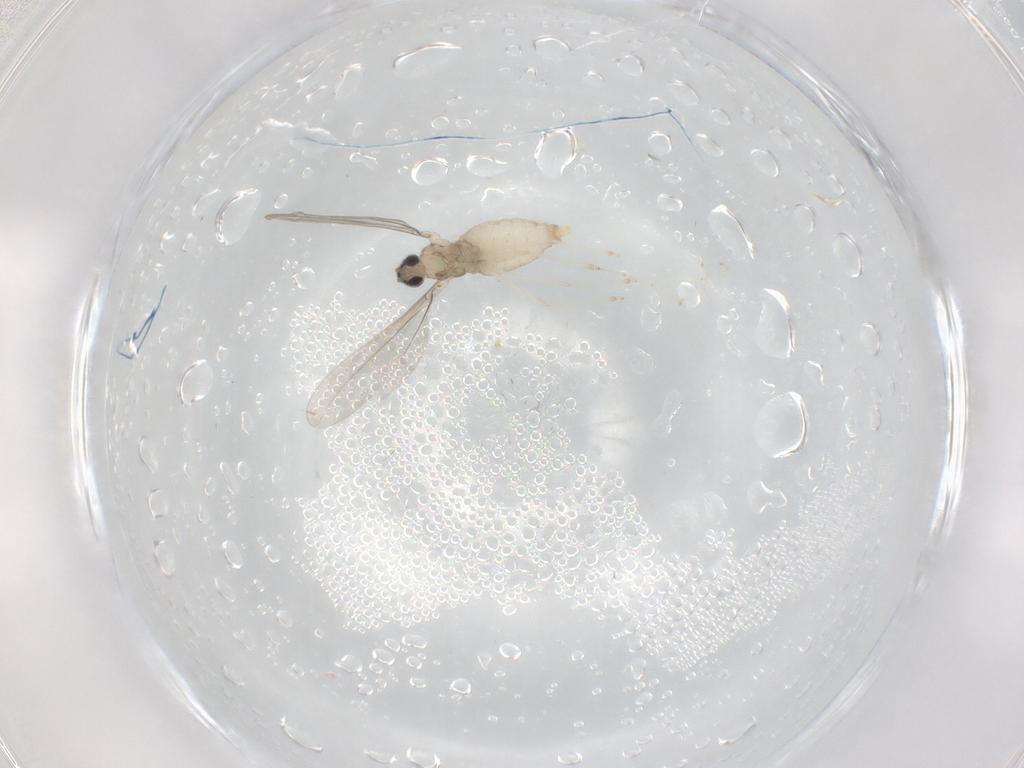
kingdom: Animalia
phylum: Arthropoda
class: Insecta
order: Diptera
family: Cecidomyiidae
